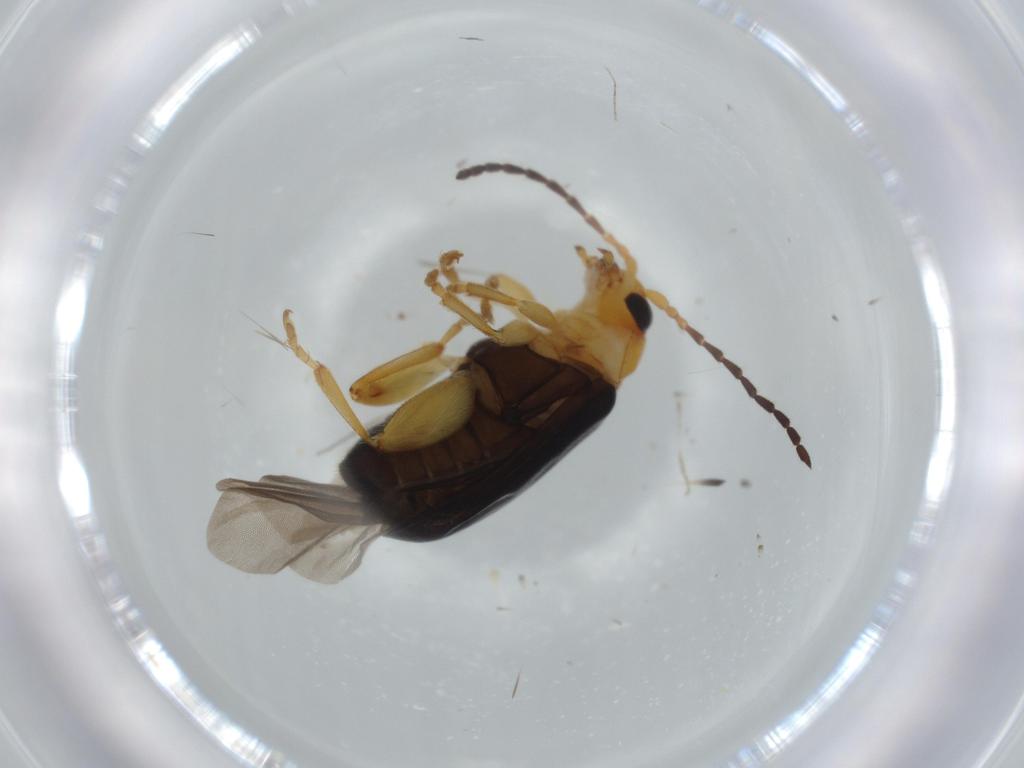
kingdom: Animalia
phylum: Arthropoda
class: Insecta
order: Coleoptera
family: Chrysomelidae
